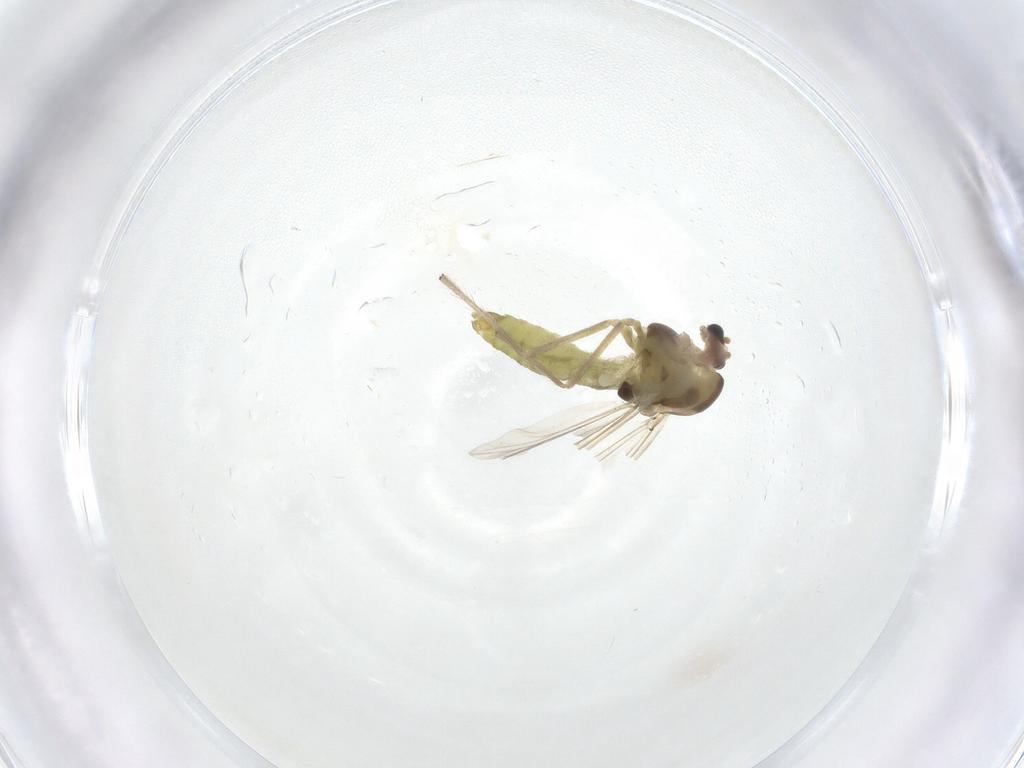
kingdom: Animalia
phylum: Arthropoda
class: Insecta
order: Diptera
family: Chironomidae
